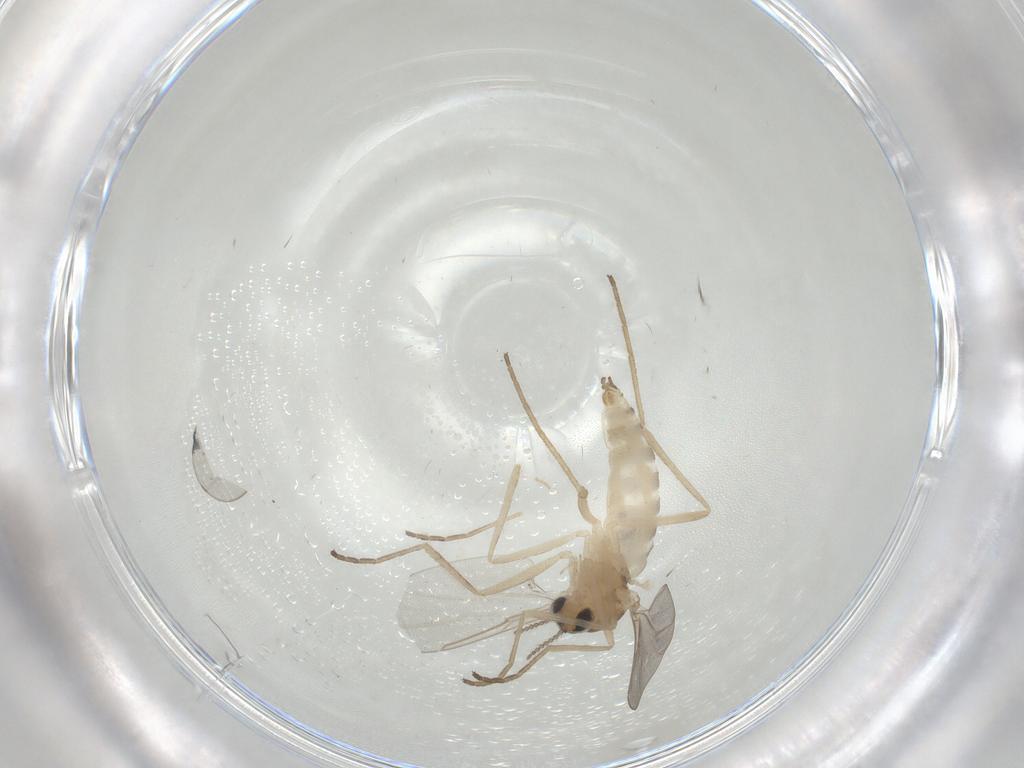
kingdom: Animalia
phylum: Arthropoda
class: Insecta
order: Diptera
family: Cecidomyiidae
